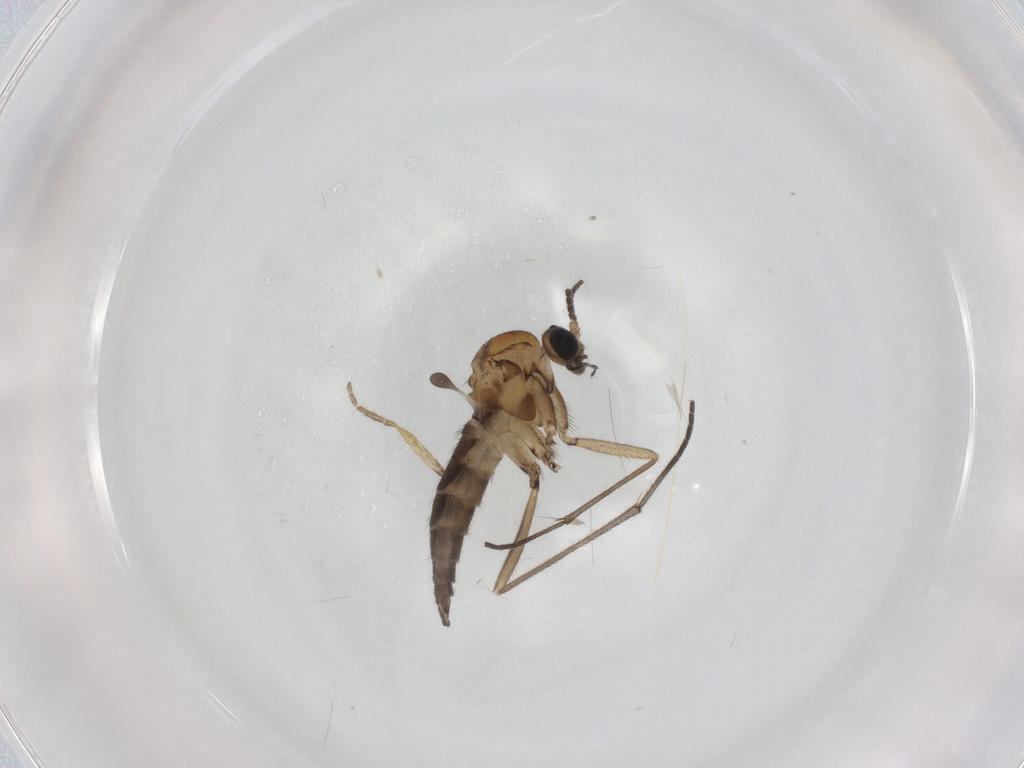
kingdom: Animalia
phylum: Arthropoda
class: Insecta
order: Diptera
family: Sciaridae
